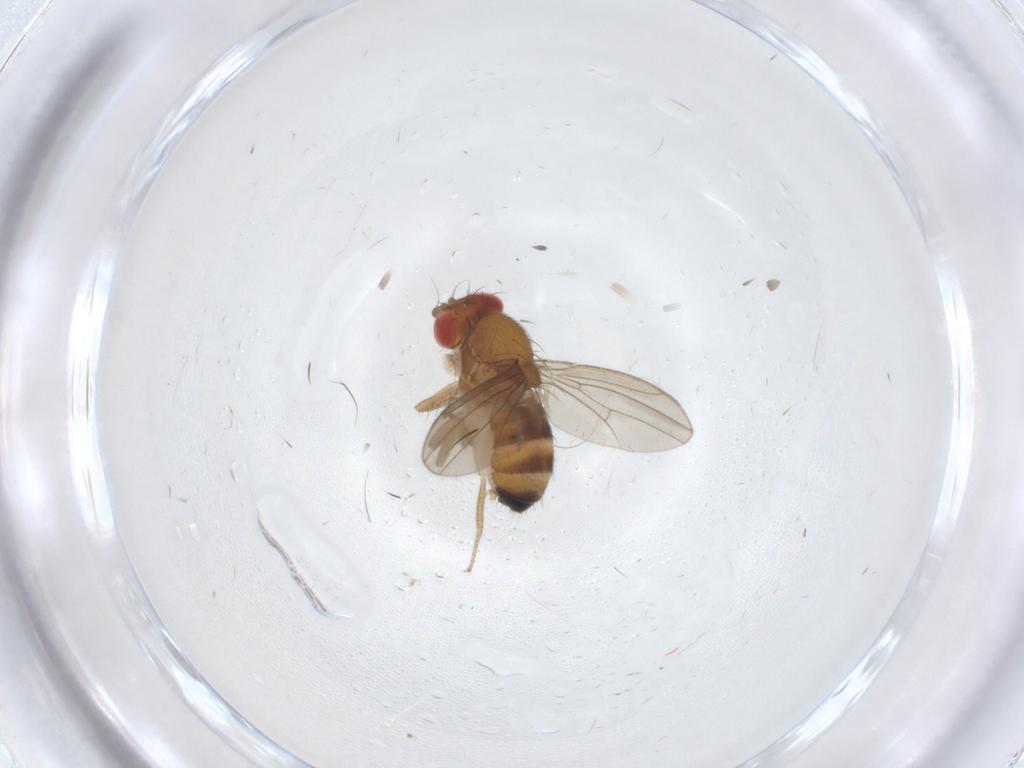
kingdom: Animalia
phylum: Arthropoda
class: Insecta
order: Diptera
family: Drosophilidae
